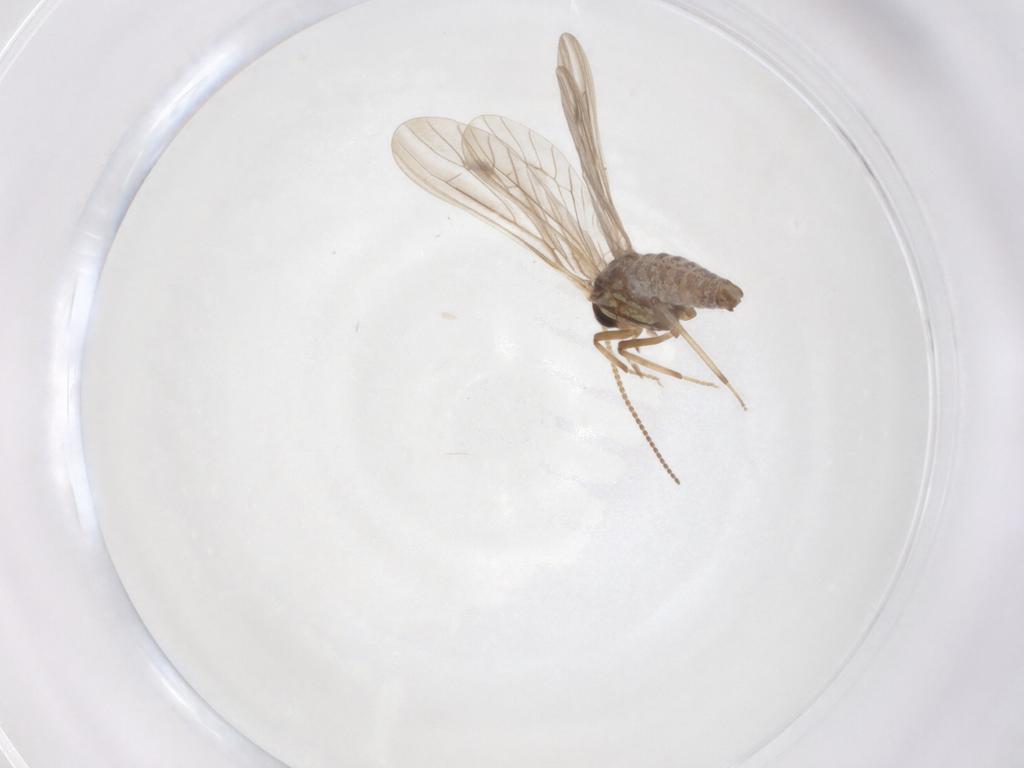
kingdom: Animalia
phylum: Arthropoda
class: Insecta
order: Neuroptera
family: Coniopterygidae
